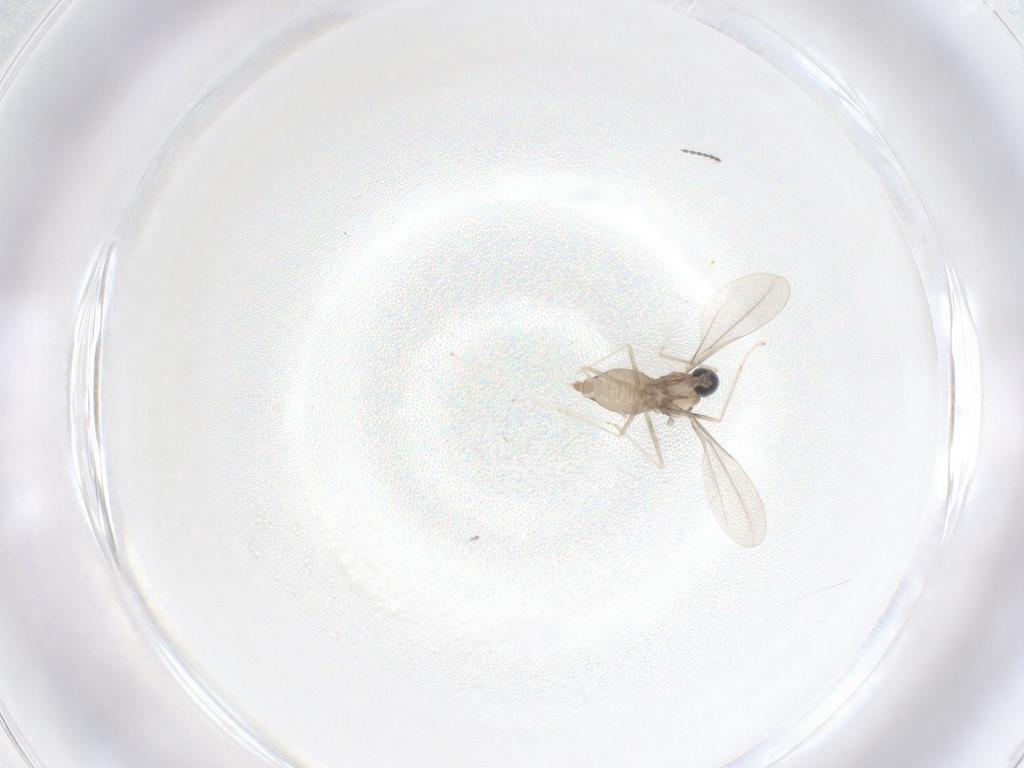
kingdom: Animalia
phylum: Arthropoda
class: Insecta
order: Diptera
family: Cecidomyiidae
